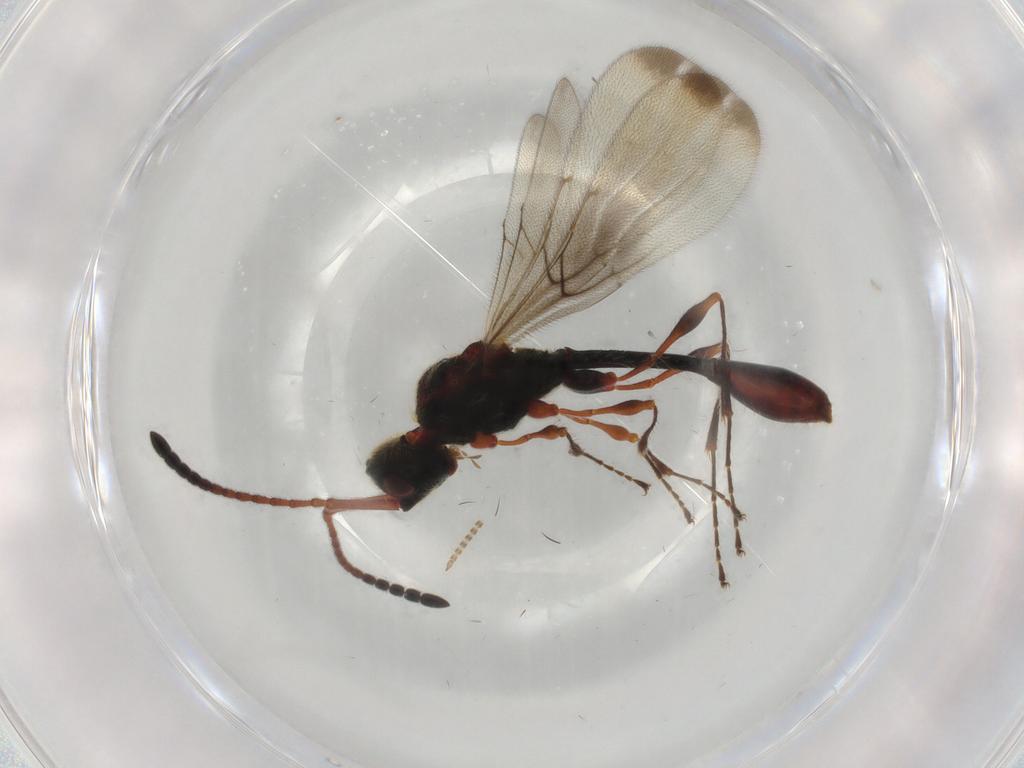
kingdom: Animalia
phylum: Arthropoda
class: Insecta
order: Hymenoptera
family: Diapriidae
